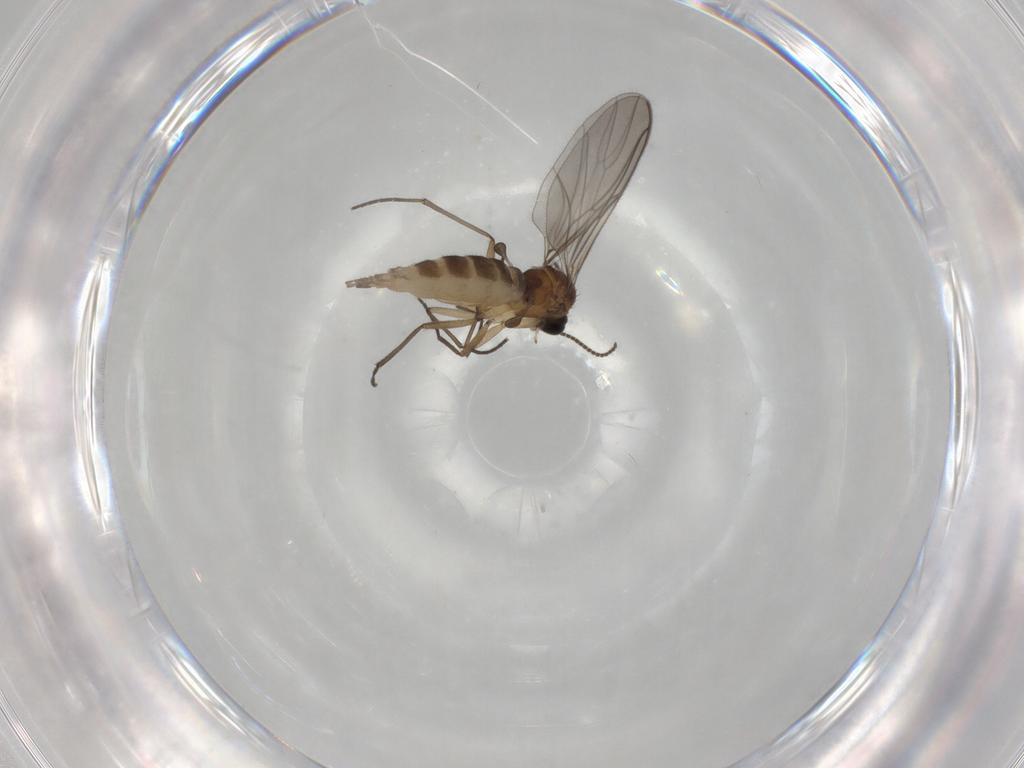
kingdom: Animalia
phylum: Arthropoda
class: Insecta
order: Diptera
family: Sciaridae
